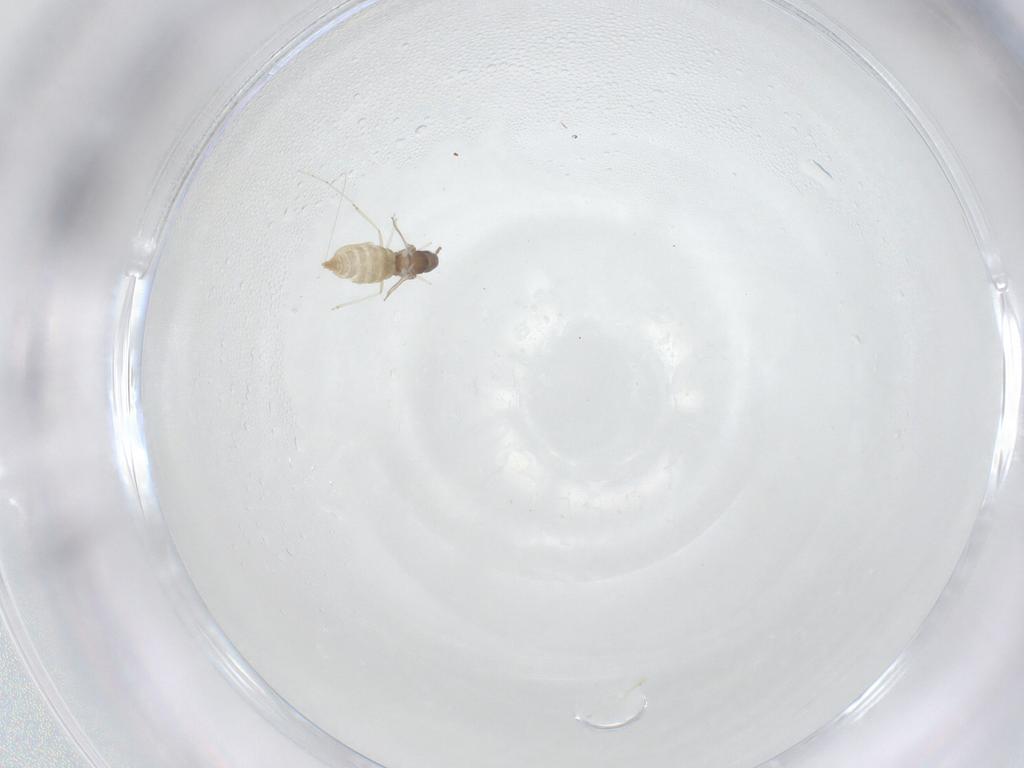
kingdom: Animalia
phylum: Arthropoda
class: Insecta
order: Diptera
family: Cecidomyiidae
